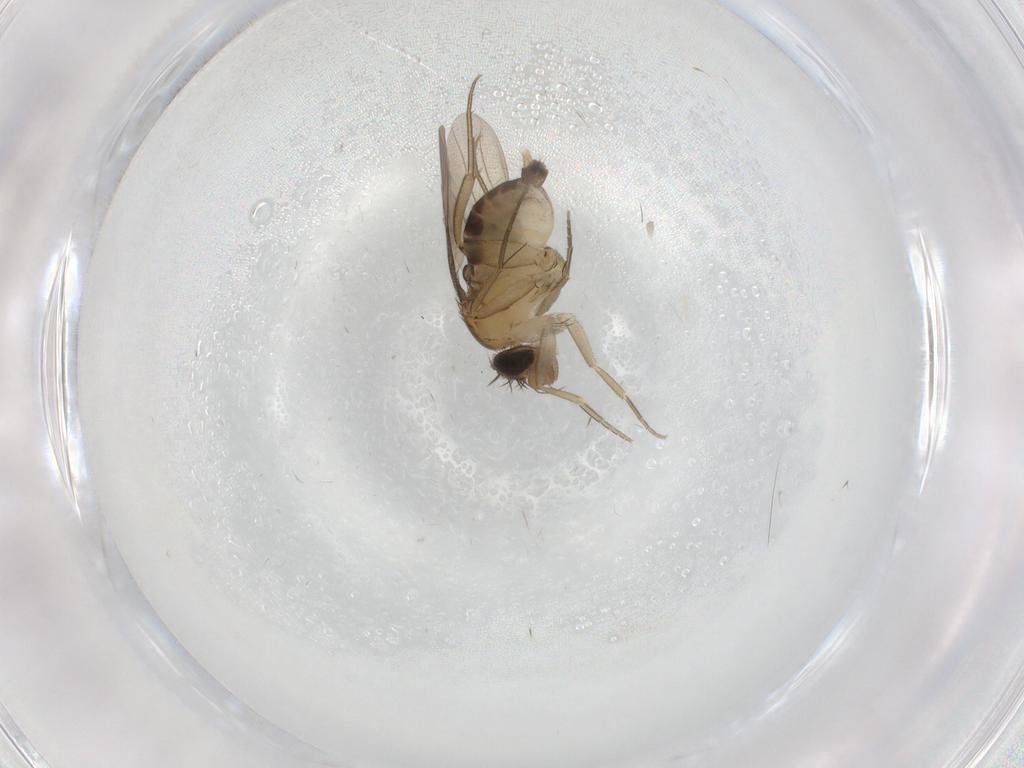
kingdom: Animalia
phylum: Arthropoda
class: Insecta
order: Diptera
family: Phoridae
